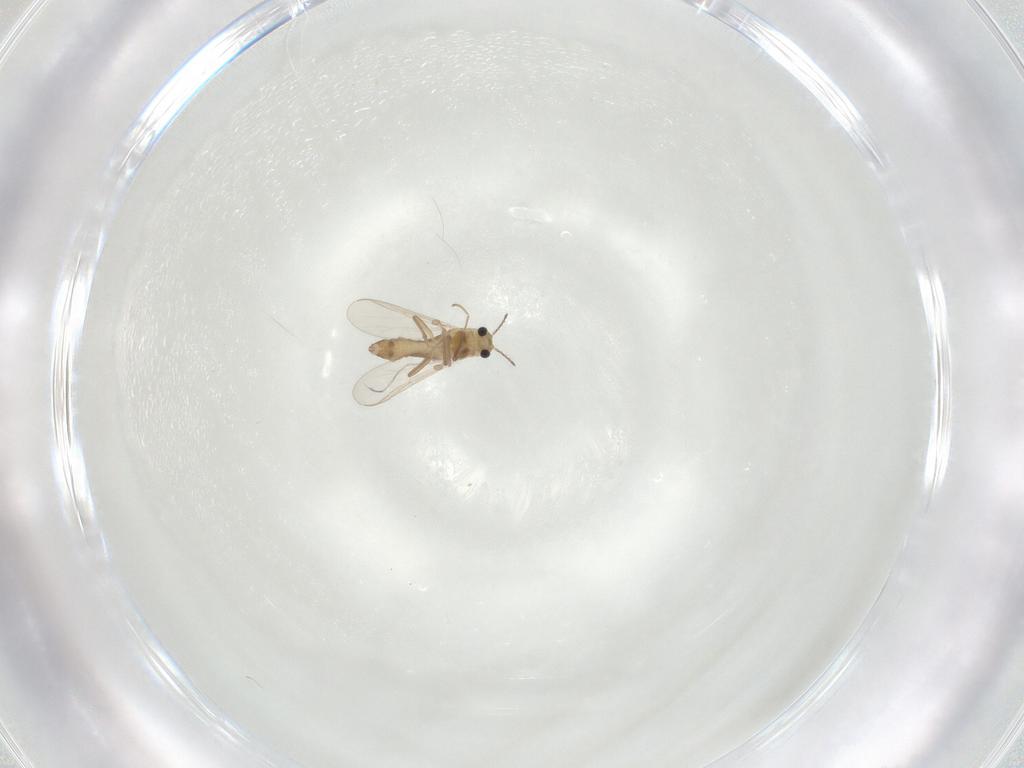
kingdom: Animalia
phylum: Arthropoda
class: Insecta
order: Diptera
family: Chironomidae
